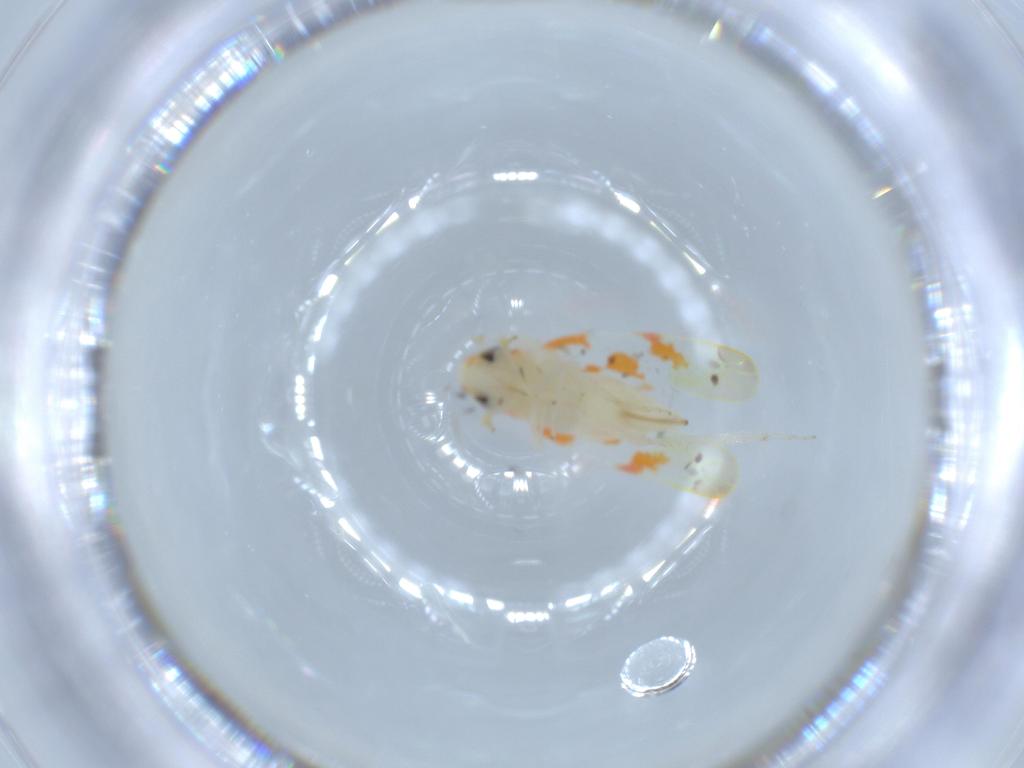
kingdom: Animalia
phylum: Arthropoda
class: Insecta
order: Hemiptera
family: Cicadellidae
